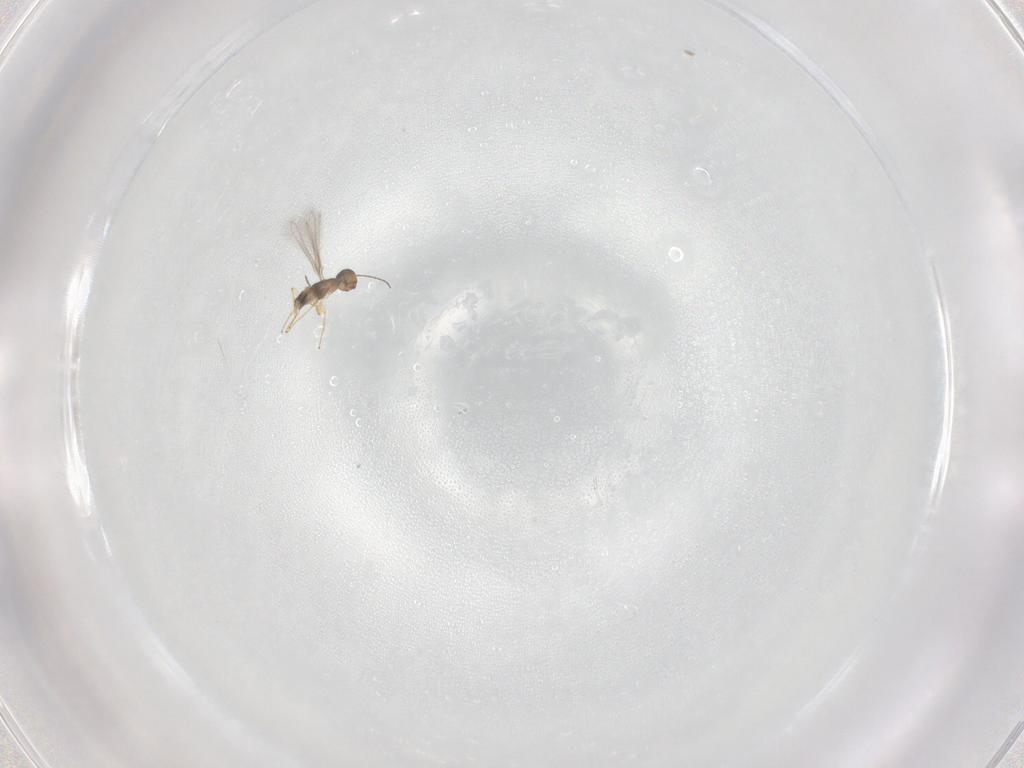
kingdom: Animalia
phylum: Arthropoda
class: Insecta
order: Hymenoptera
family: Mymaridae
